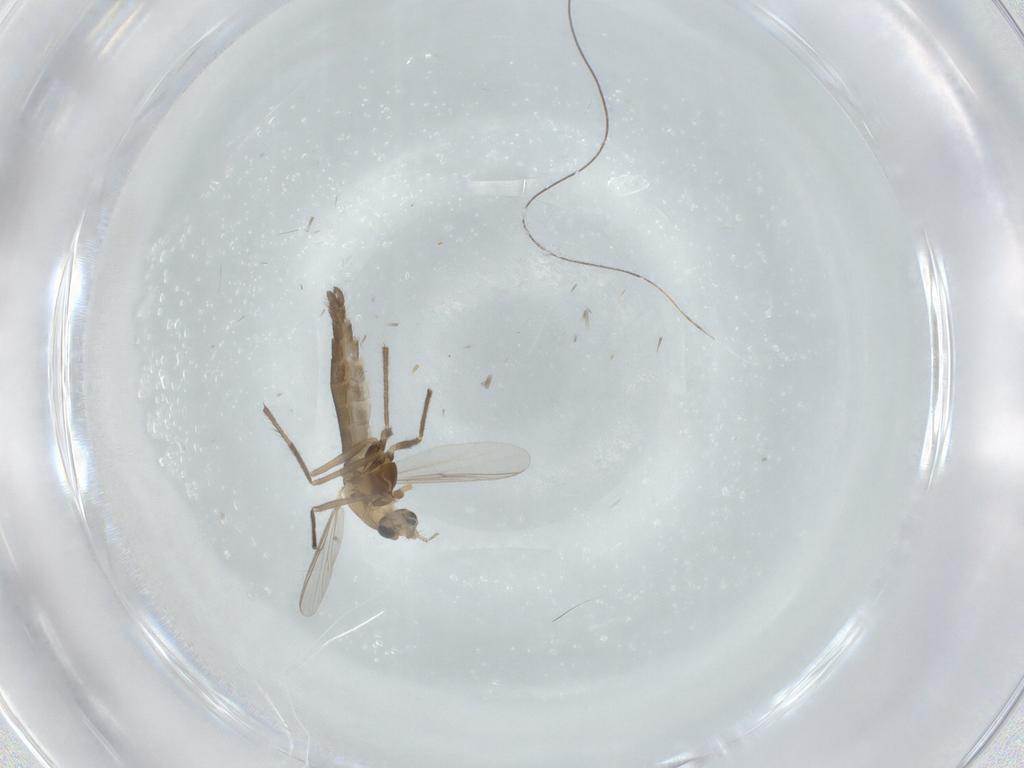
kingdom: Animalia
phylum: Arthropoda
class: Insecta
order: Diptera
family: Chironomidae
